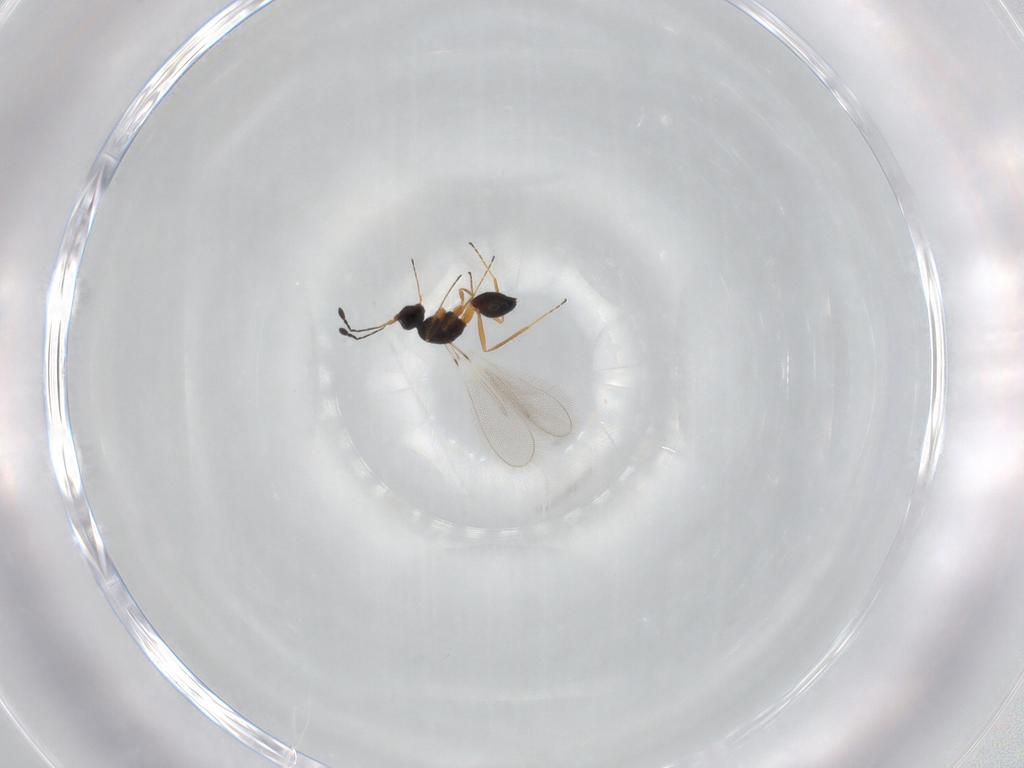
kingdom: Animalia
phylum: Arthropoda
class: Insecta
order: Hymenoptera
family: Mymaridae
